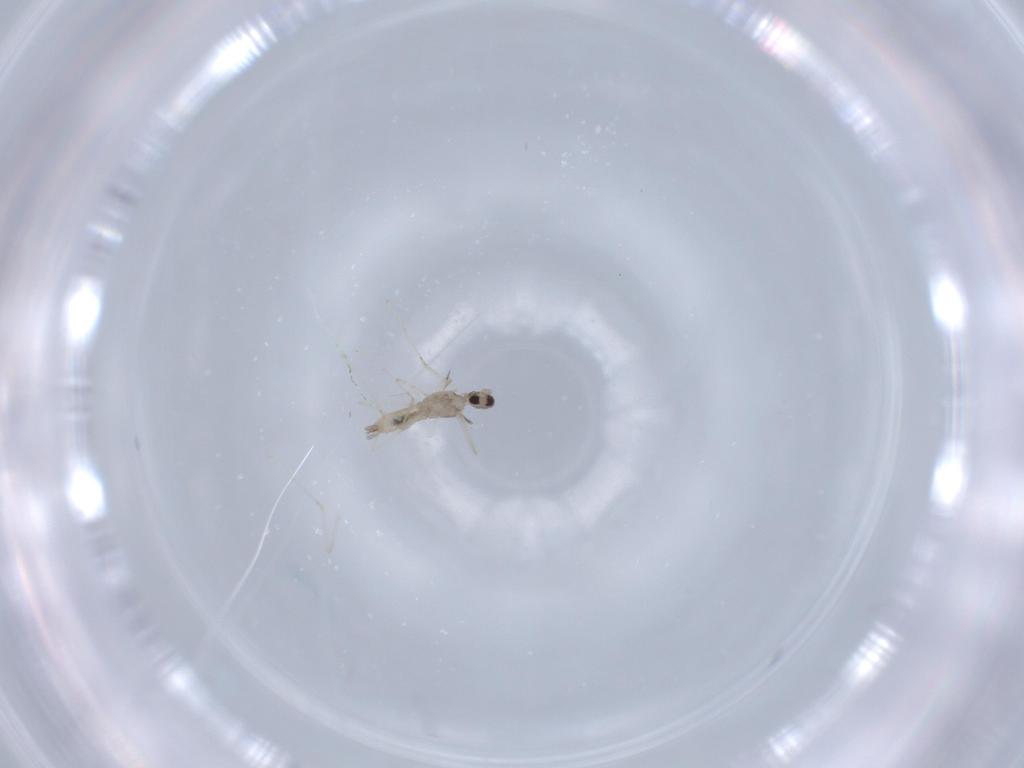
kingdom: Animalia
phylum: Arthropoda
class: Insecta
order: Diptera
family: Cecidomyiidae
